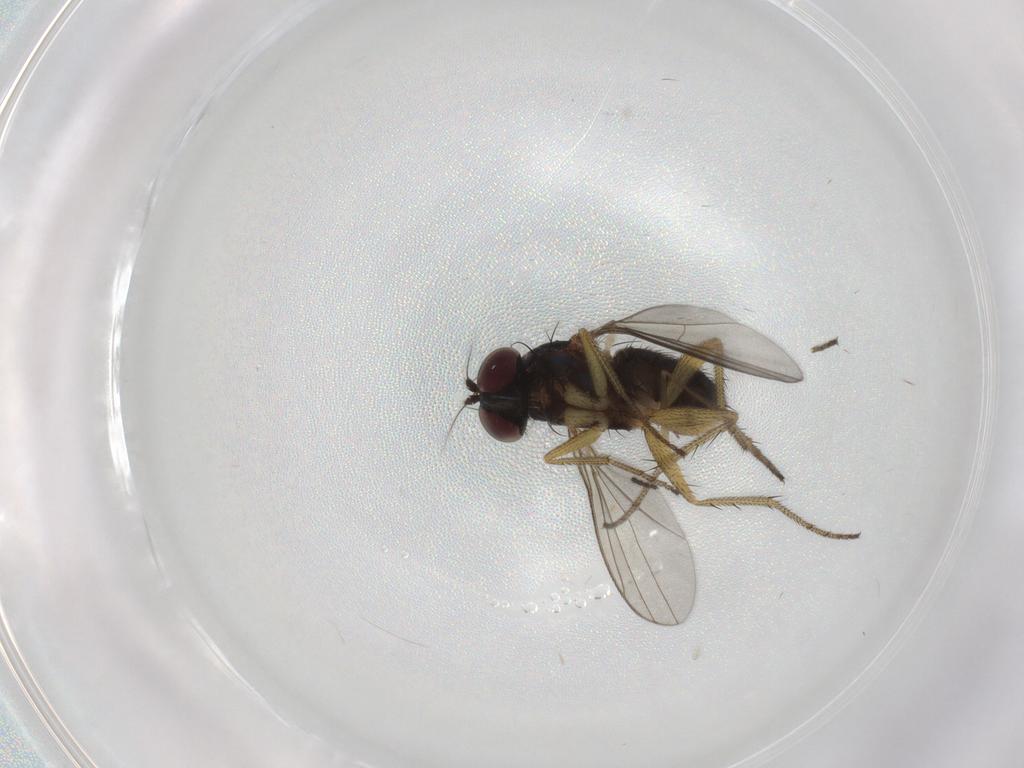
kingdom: Animalia
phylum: Arthropoda
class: Insecta
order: Diptera
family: Dolichopodidae
